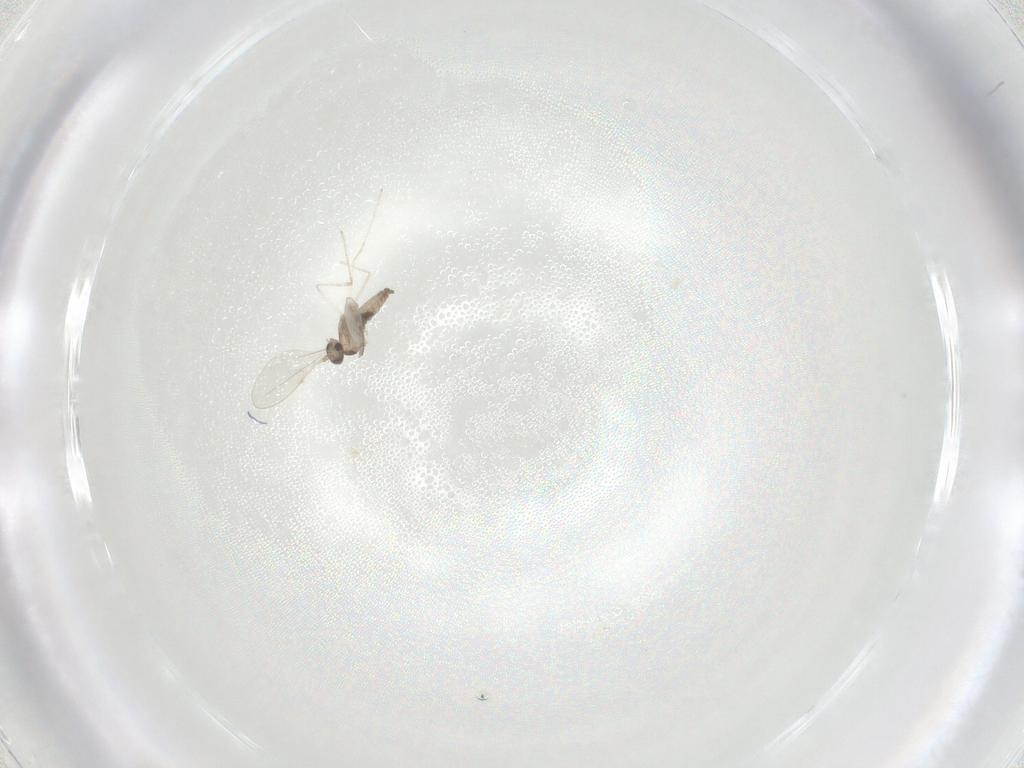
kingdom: Animalia
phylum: Arthropoda
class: Insecta
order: Diptera
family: Cecidomyiidae
